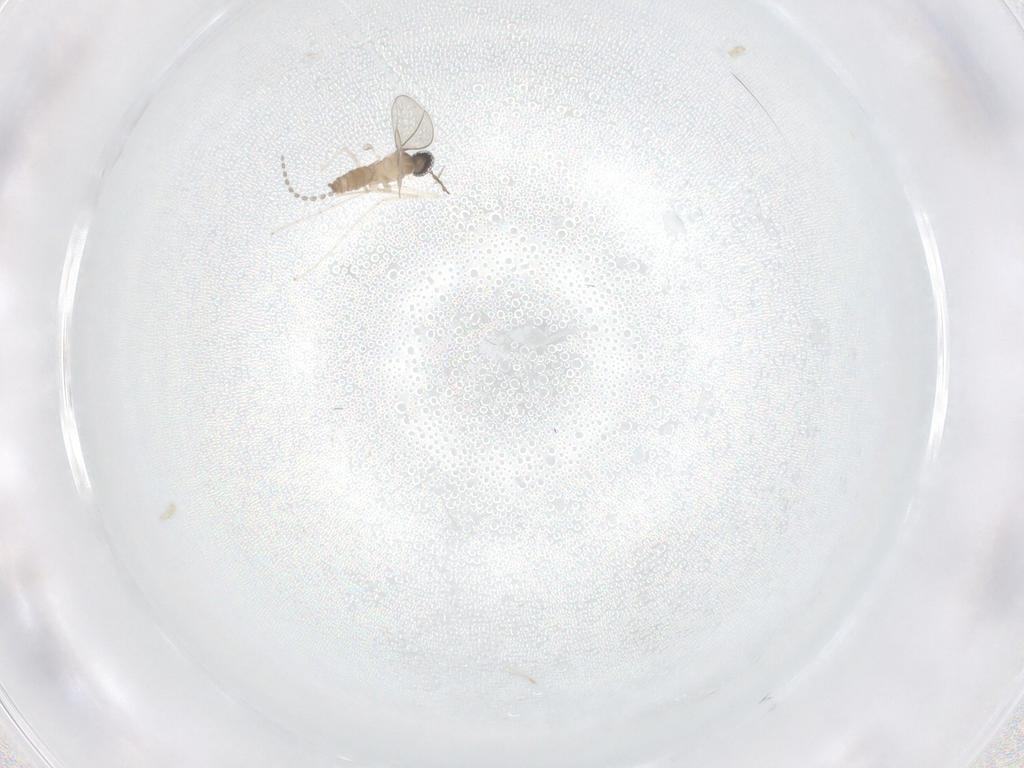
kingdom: Animalia
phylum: Arthropoda
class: Insecta
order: Diptera
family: Cecidomyiidae
